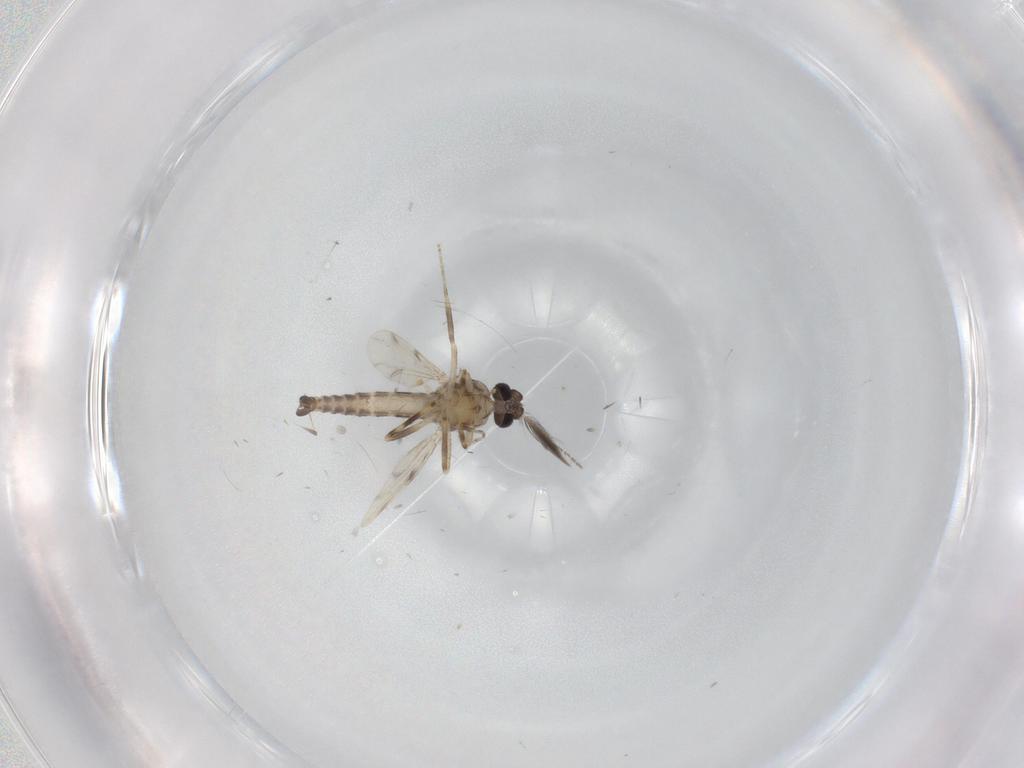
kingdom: Animalia
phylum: Arthropoda
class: Insecta
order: Diptera
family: Ceratopogonidae
